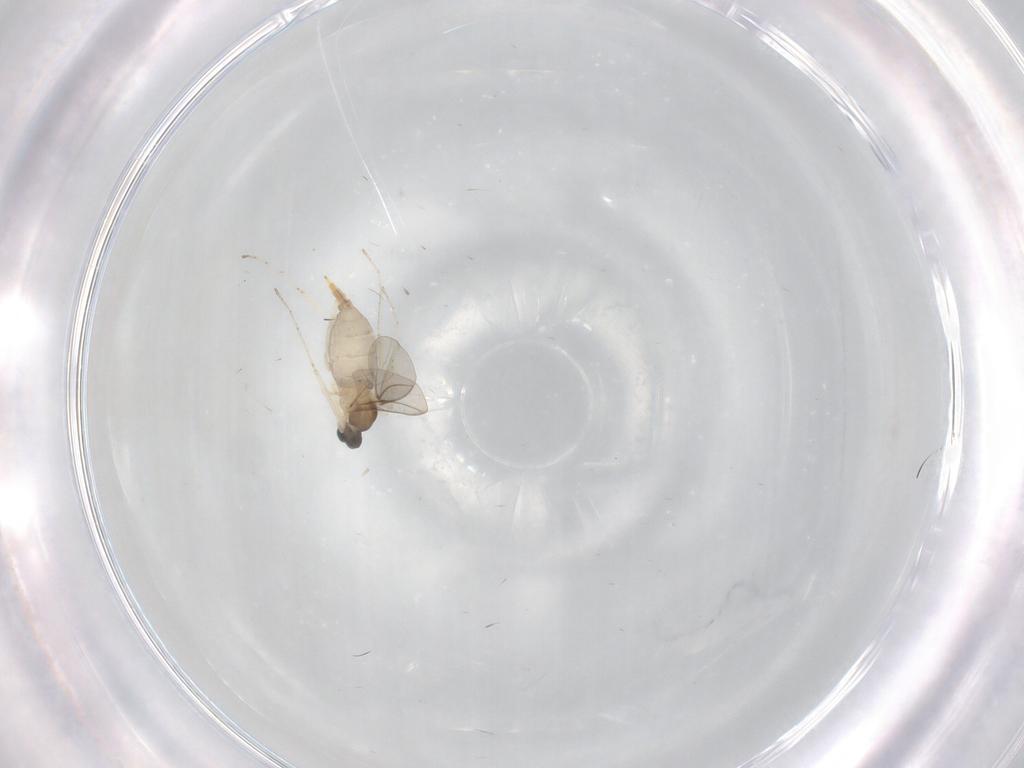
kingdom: Animalia
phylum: Arthropoda
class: Insecta
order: Diptera
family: Cecidomyiidae
